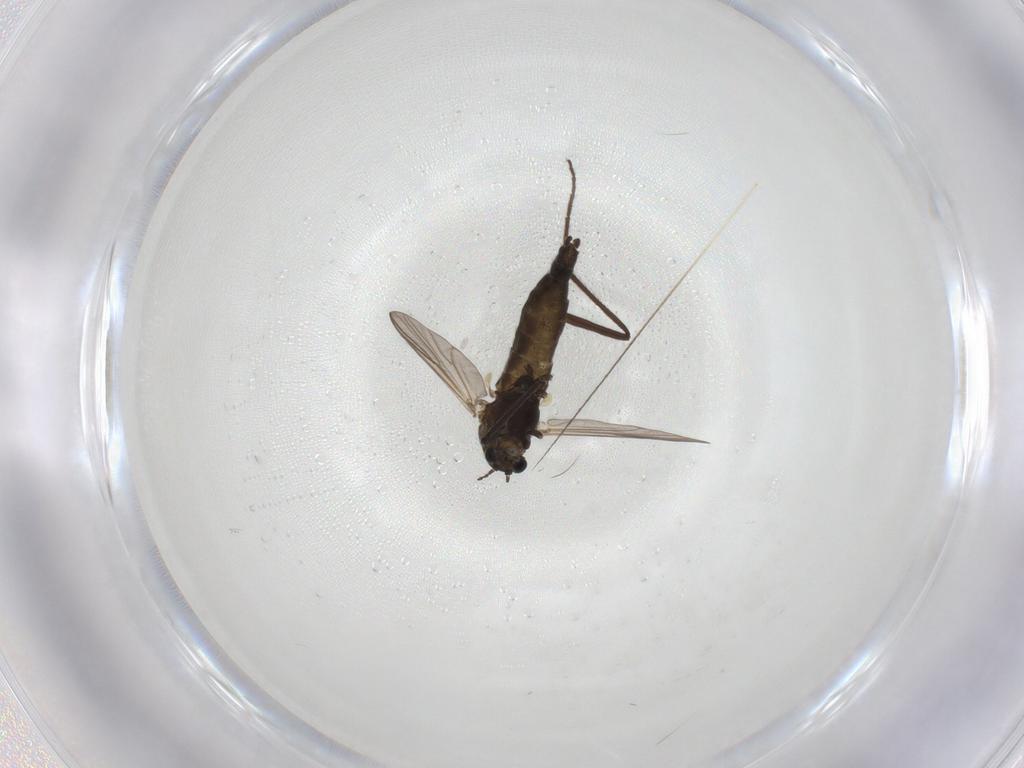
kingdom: Animalia
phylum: Arthropoda
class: Insecta
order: Diptera
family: Chironomidae
